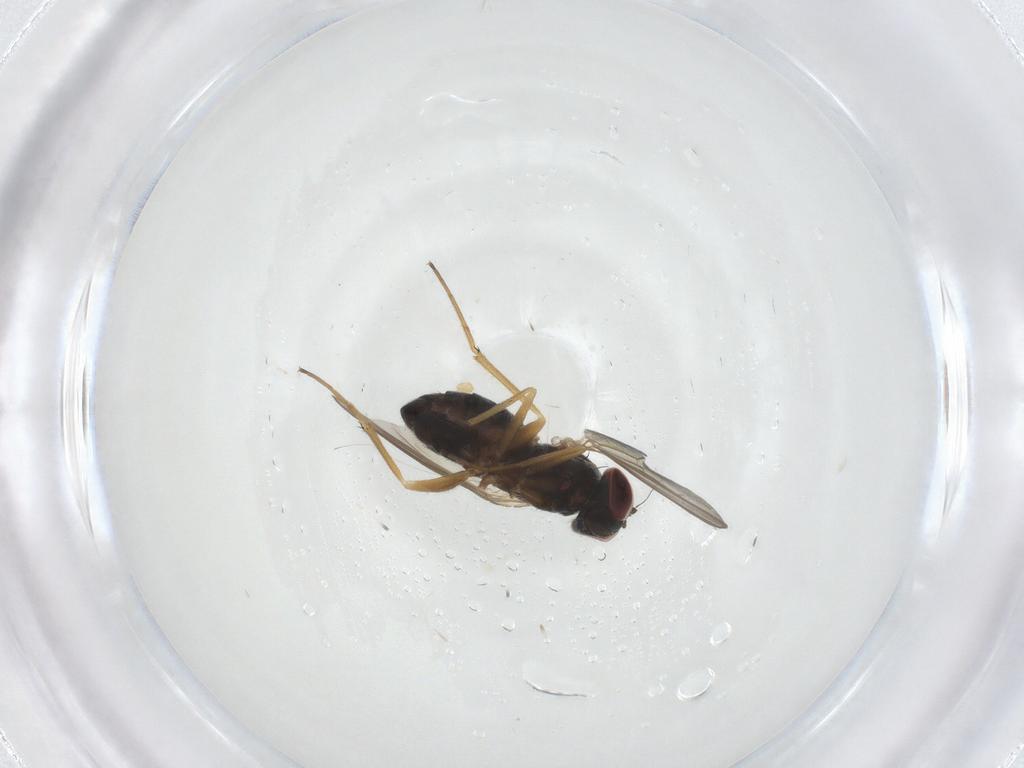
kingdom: Animalia
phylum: Arthropoda
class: Insecta
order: Diptera
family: Dolichopodidae
